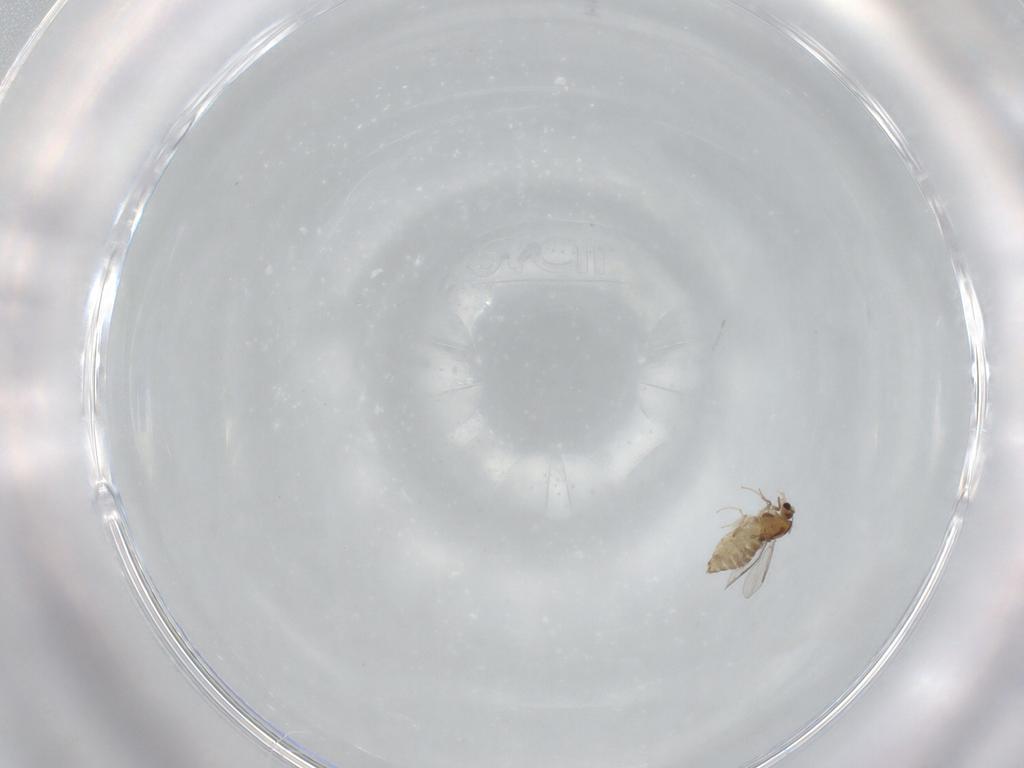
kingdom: Animalia
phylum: Arthropoda
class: Insecta
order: Diptera
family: Chironomidae
